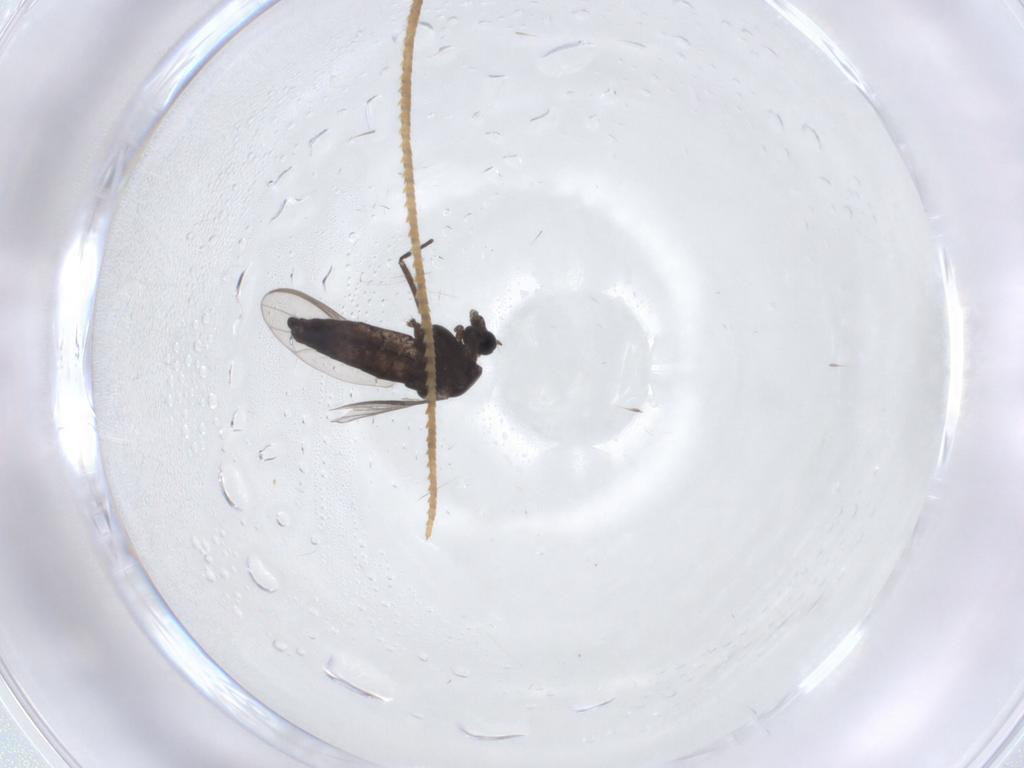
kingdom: Animalia
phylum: Arthropoda
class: Insecta
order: Diptera
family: Chironomidae
